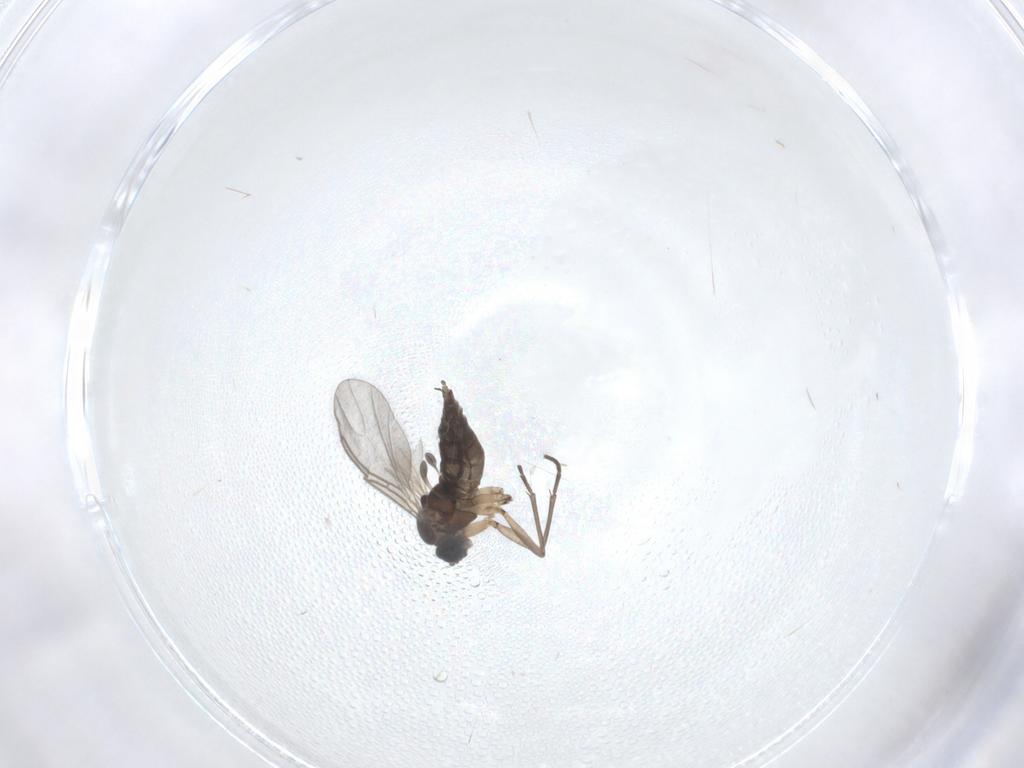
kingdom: Animalia
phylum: Arthropoda
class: Insecta
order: Diptera
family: Sciaridae
